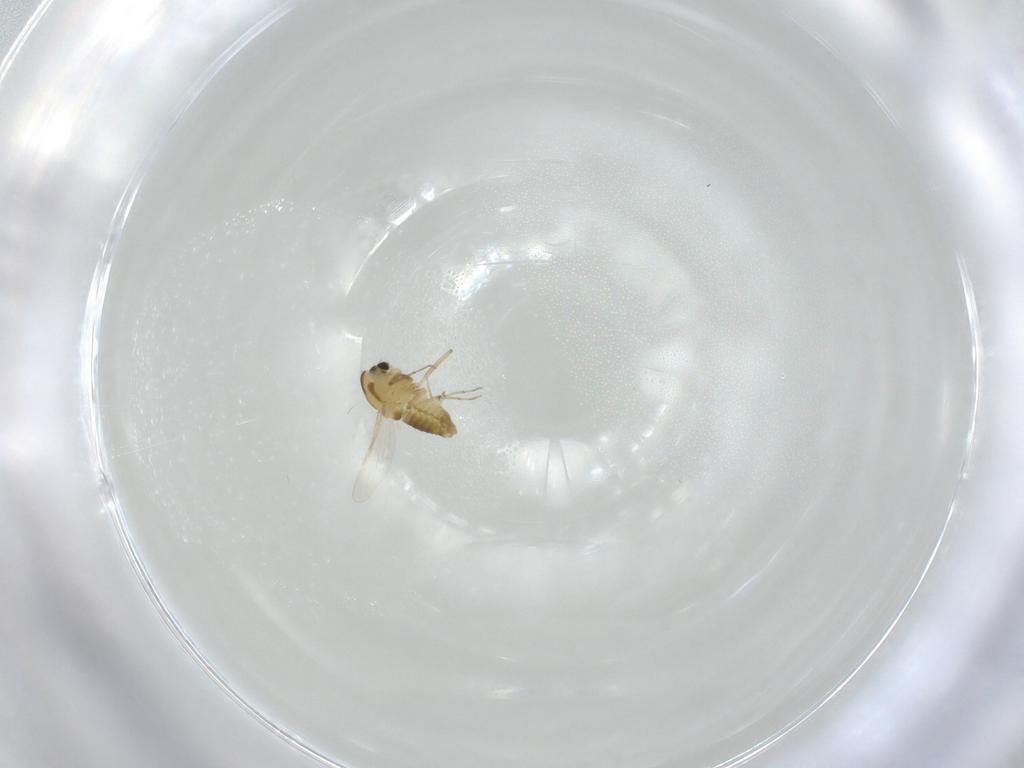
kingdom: Animalia
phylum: Arthropoda
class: Insecta
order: Diptera
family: Chironomidae
